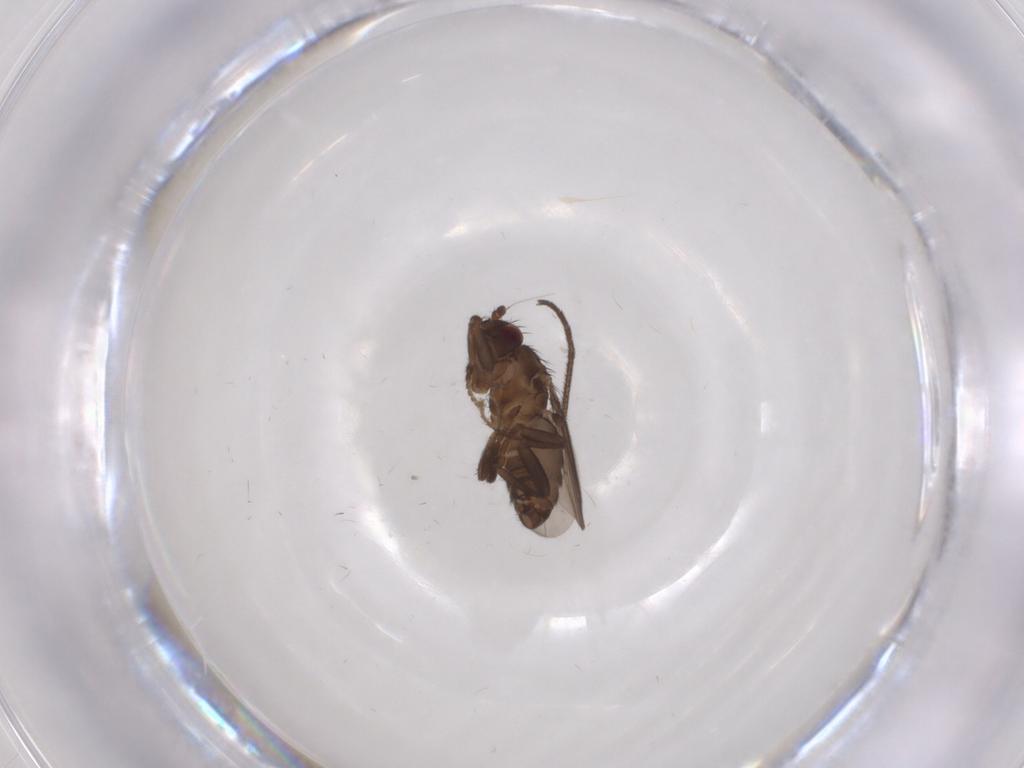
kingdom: Animalia
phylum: Arthropoda
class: Insecta
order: Diptera
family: Sphaeroceridae
